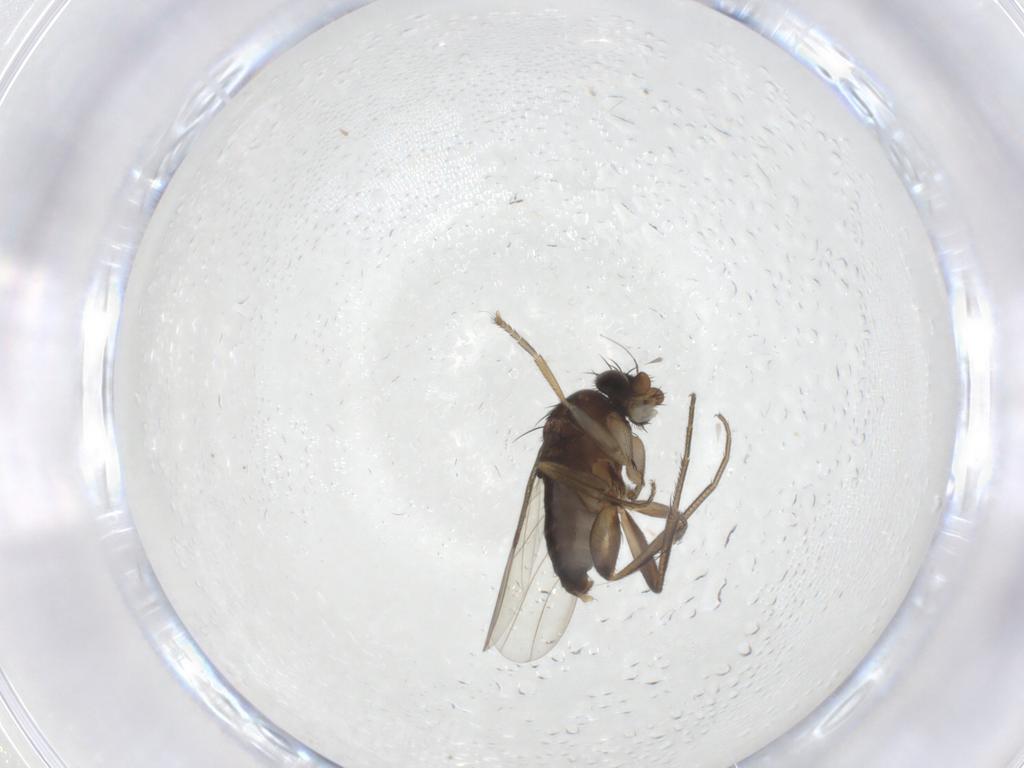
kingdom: Animalia
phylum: Arthropoda
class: Insecta
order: Diptera
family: Phoridae
